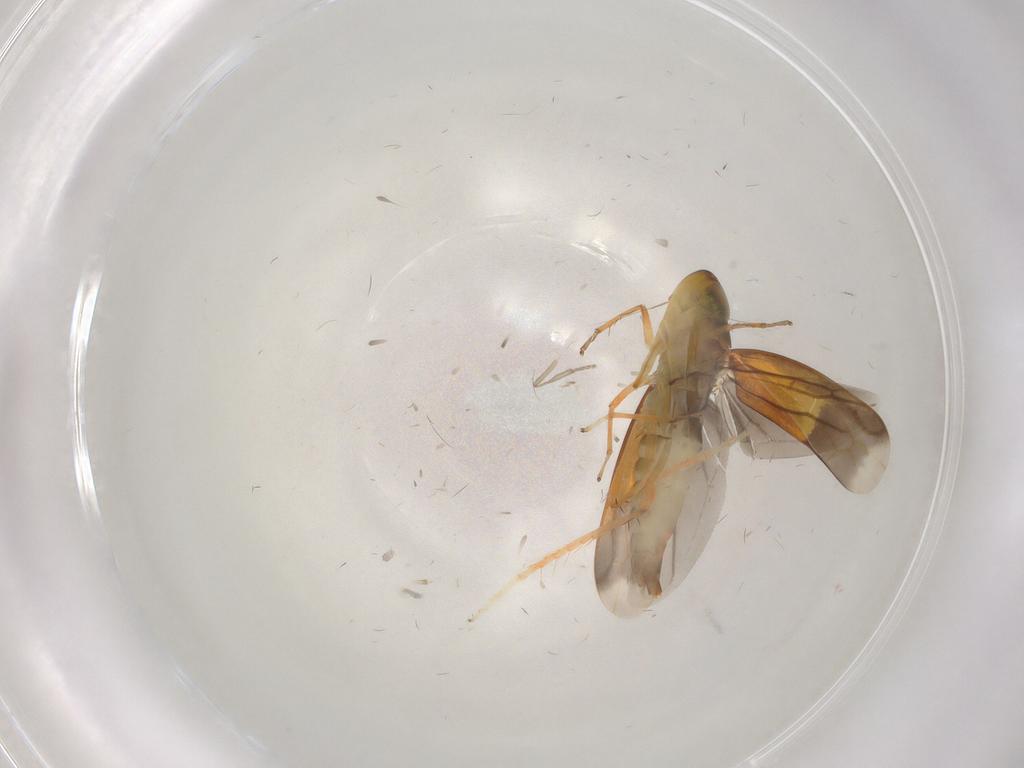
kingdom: Animalia
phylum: Arthropoda
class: Insecta
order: Hemiptera
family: Cicadellidae
